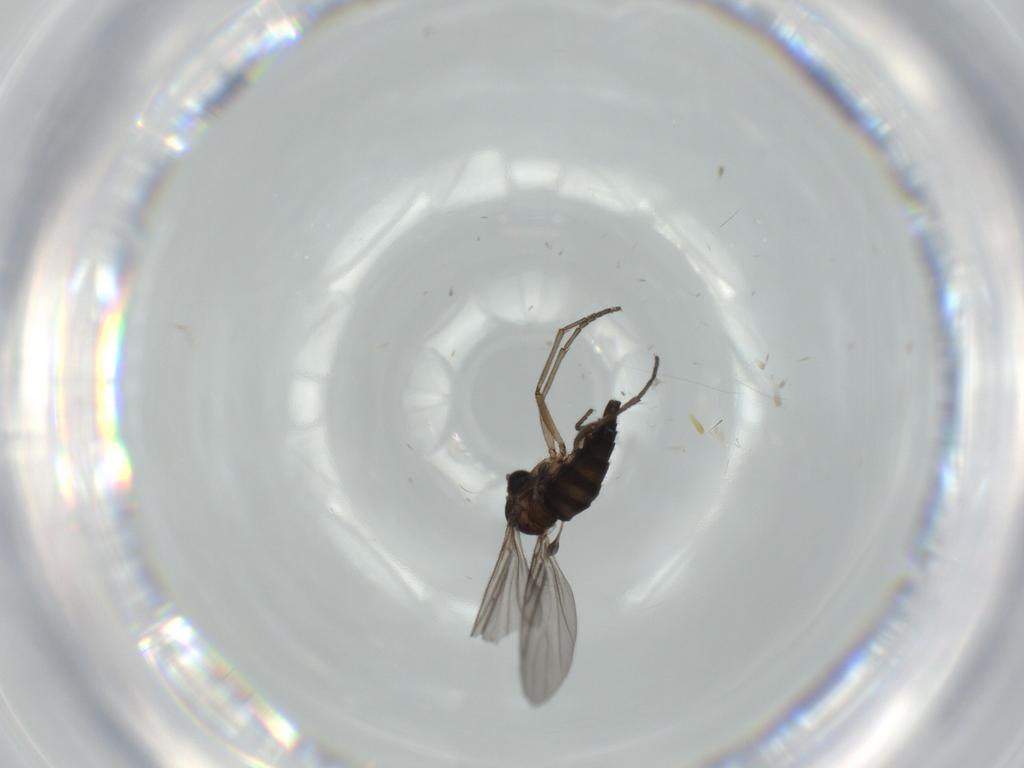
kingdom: Animalia
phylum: Arthropoda
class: Insecta
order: Diptera
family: Sciaridae
